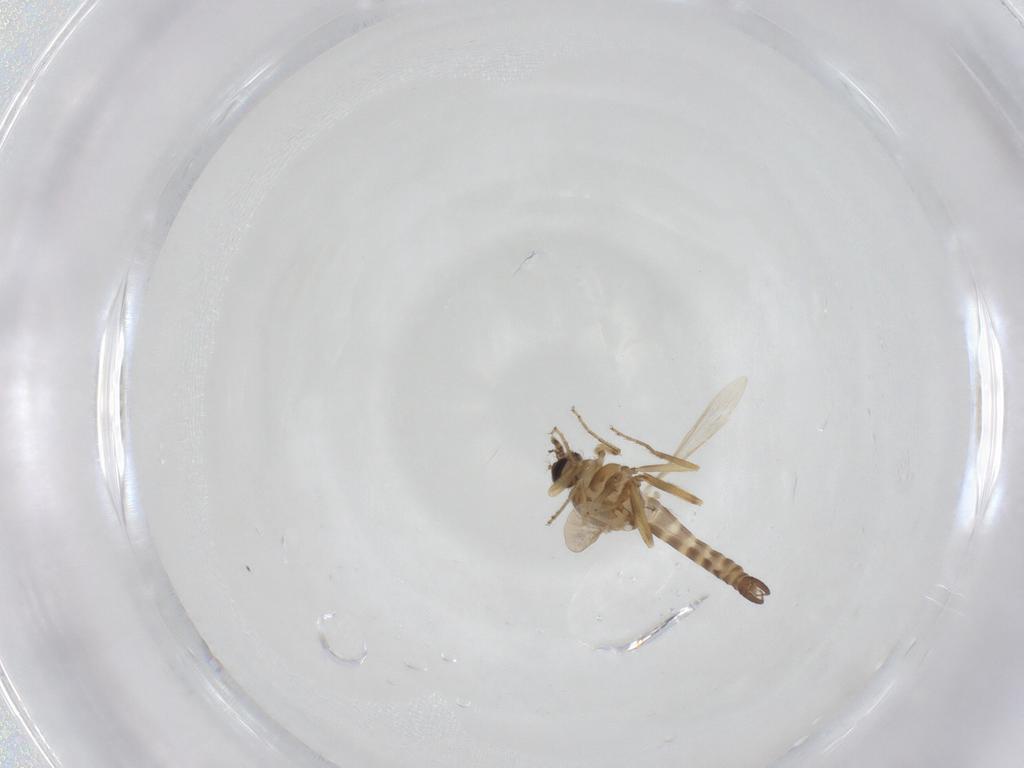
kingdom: Animalia
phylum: Arthropoda
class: Insecta
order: Diptera
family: Ceratopogonidae
